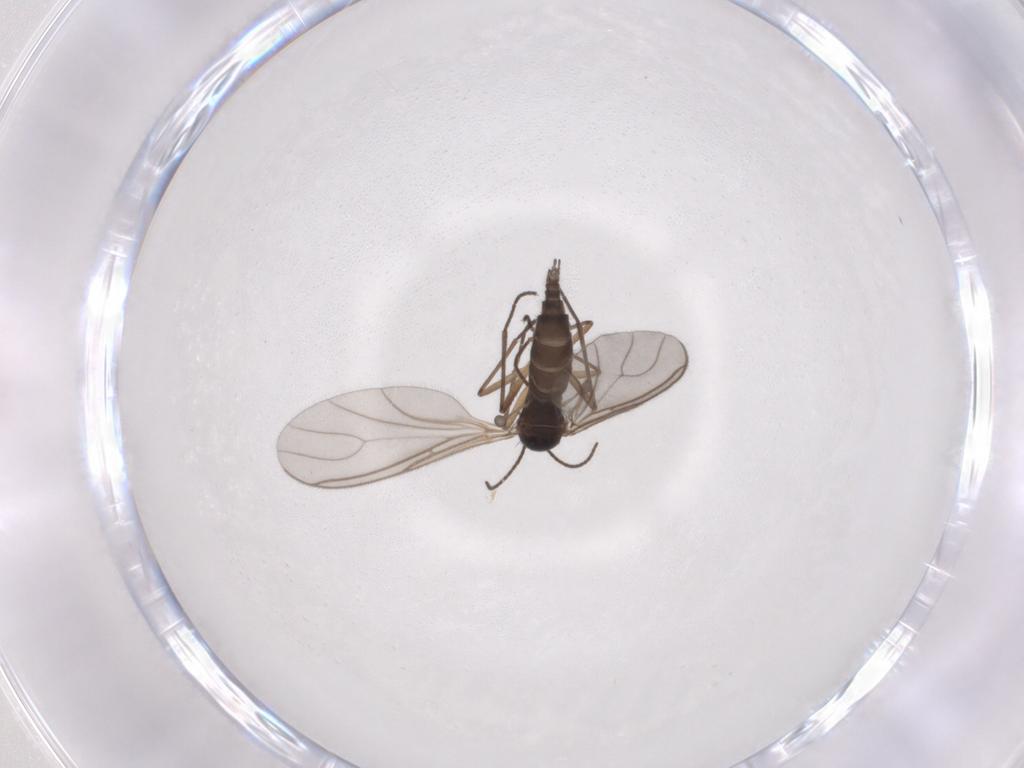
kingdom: Animalia
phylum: Arthropoda
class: Insecta
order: Diptera
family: Sciaridae
